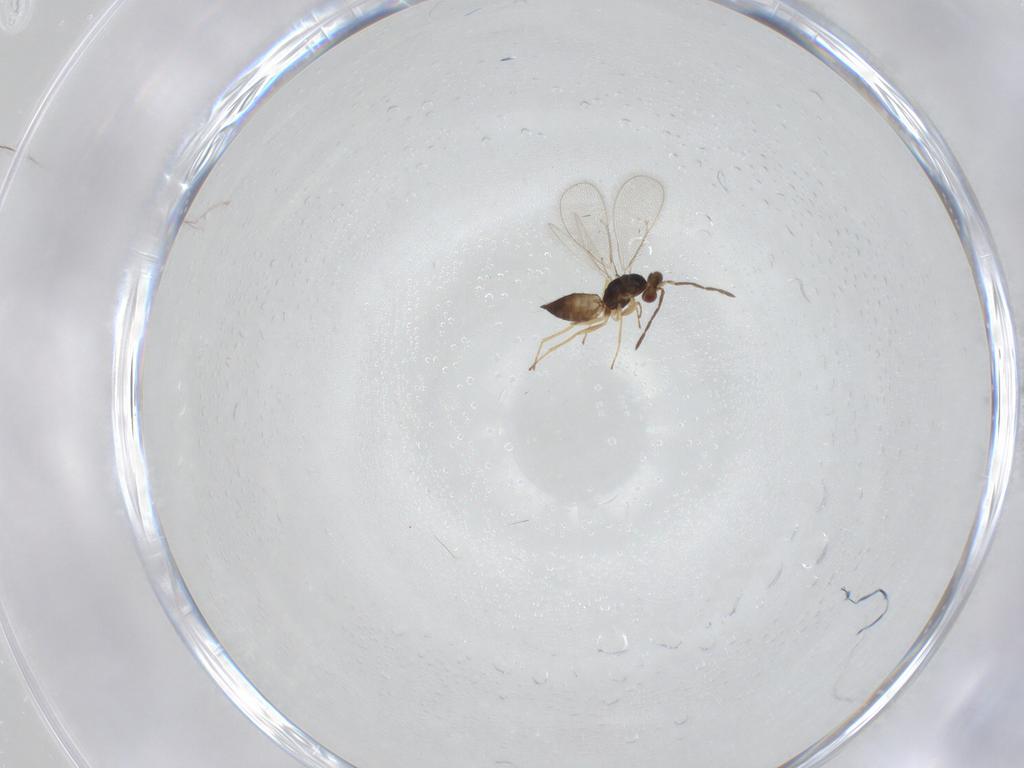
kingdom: Animalia
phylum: Arthropoda
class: Insecta
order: Hymenoptera
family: Eulophidae
